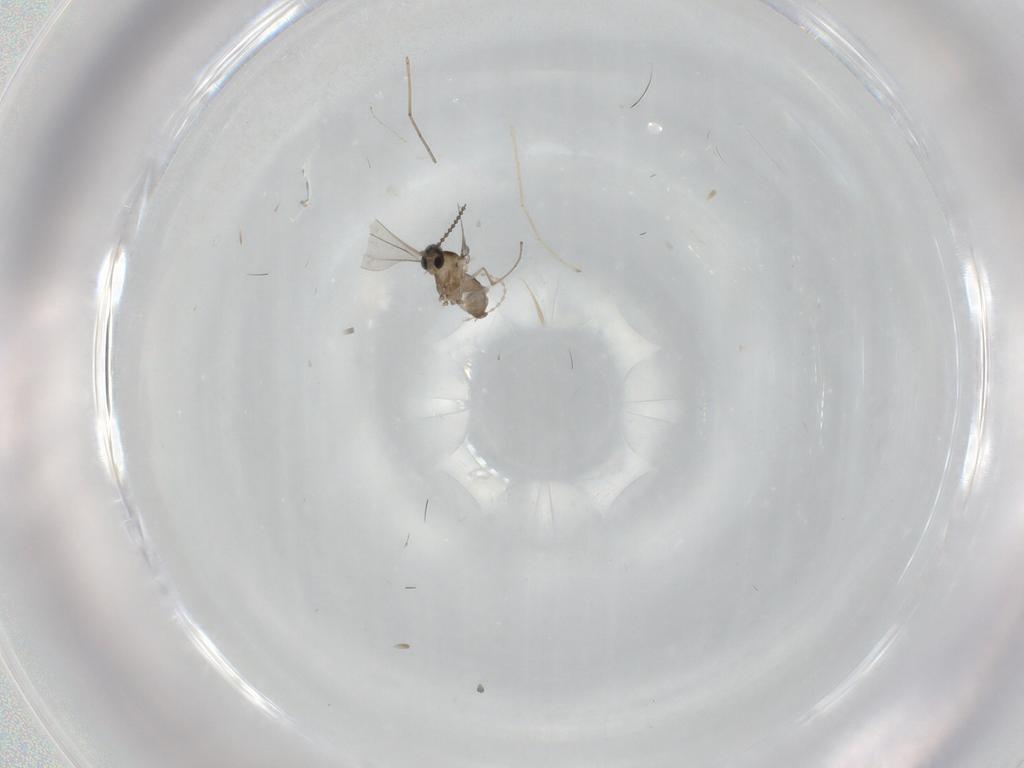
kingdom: Animalia
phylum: Arthropoda
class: Insecta
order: Diptera
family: Cecidomyiidae
